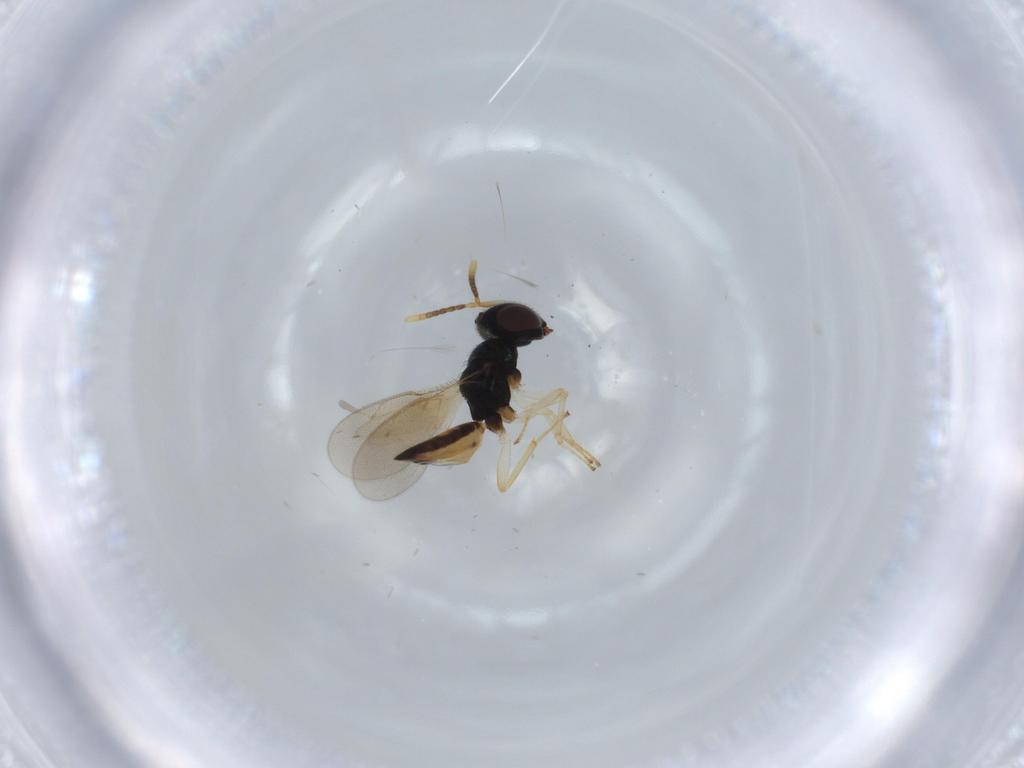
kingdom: Animalia
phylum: Arthropoda
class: Insecta
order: Hymenoptera
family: Pteromalidae
